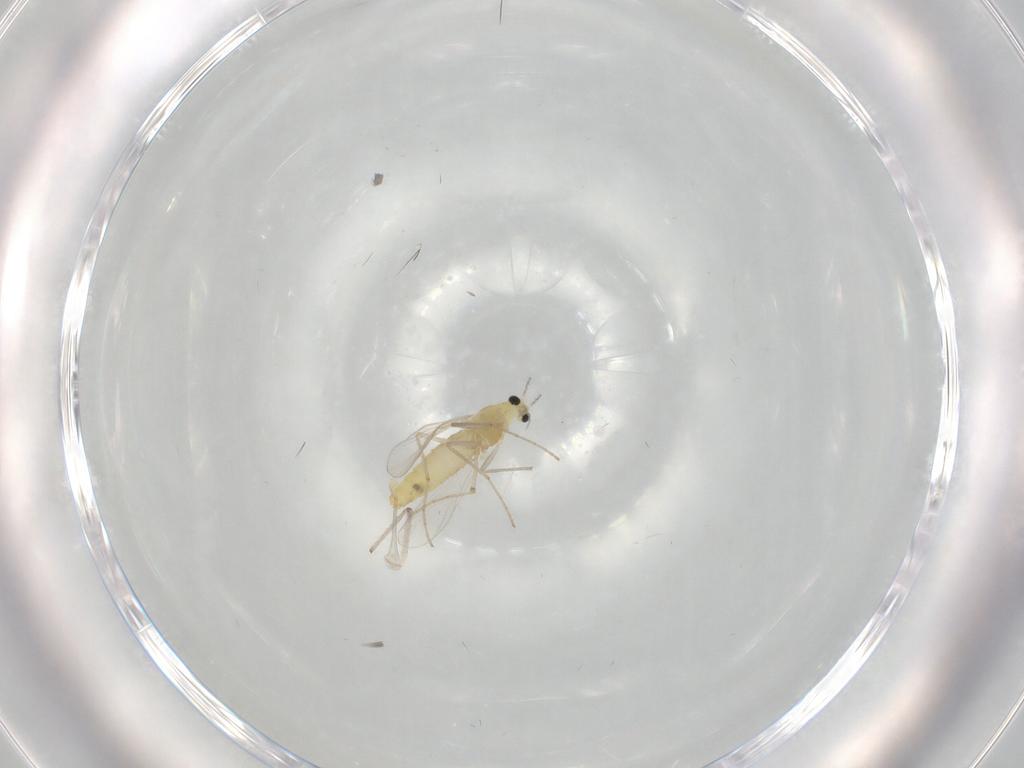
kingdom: Animalia
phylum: Arthropoda
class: Insecta
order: Diptera
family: Chironomidae
